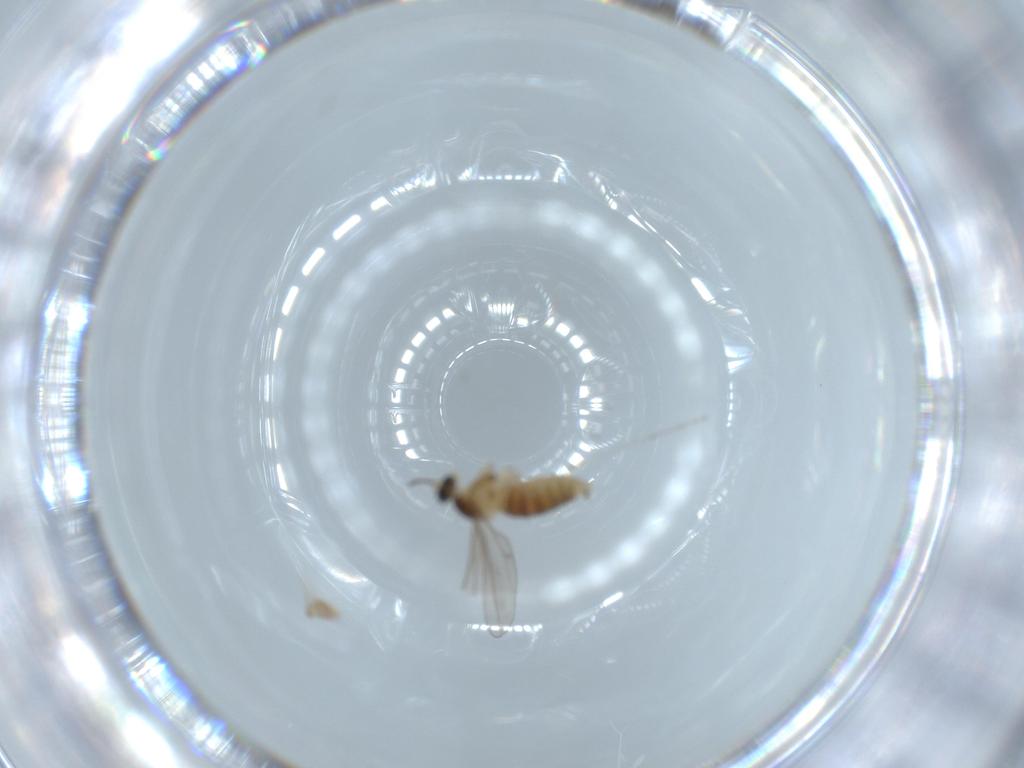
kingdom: Animalia
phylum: Arthropoda
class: Insecta
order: Diptera
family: Cecidomyiidae
